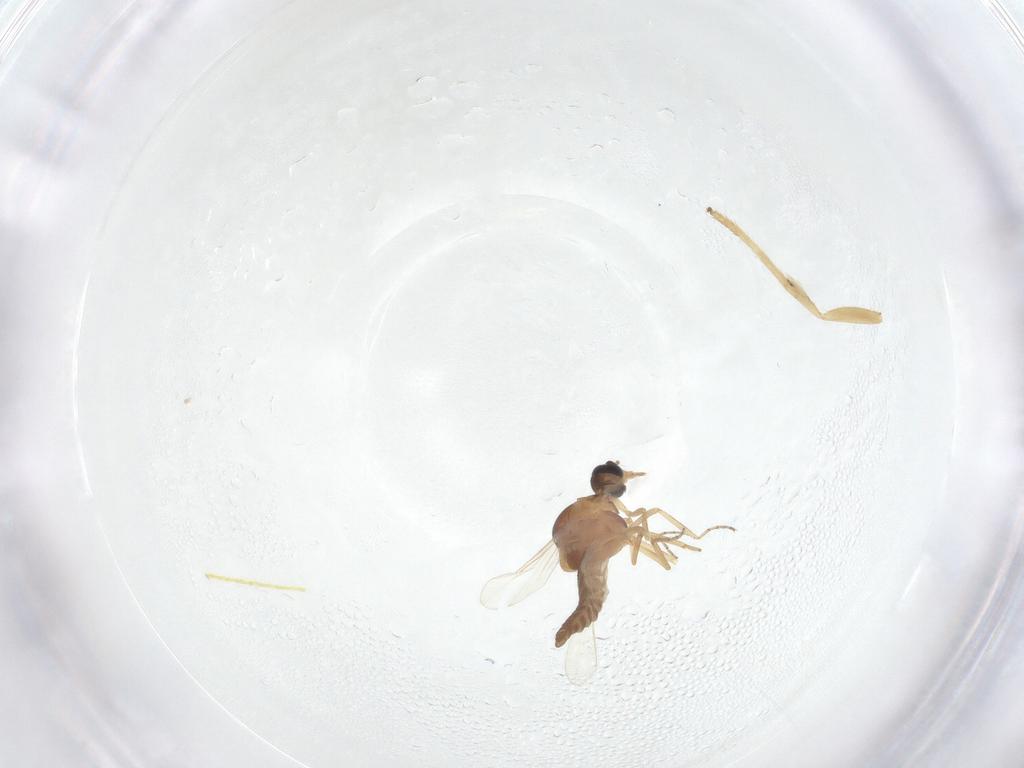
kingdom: Animalia
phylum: Arthropoda
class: Insecta
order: Diptera
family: Ceratopogonidae
